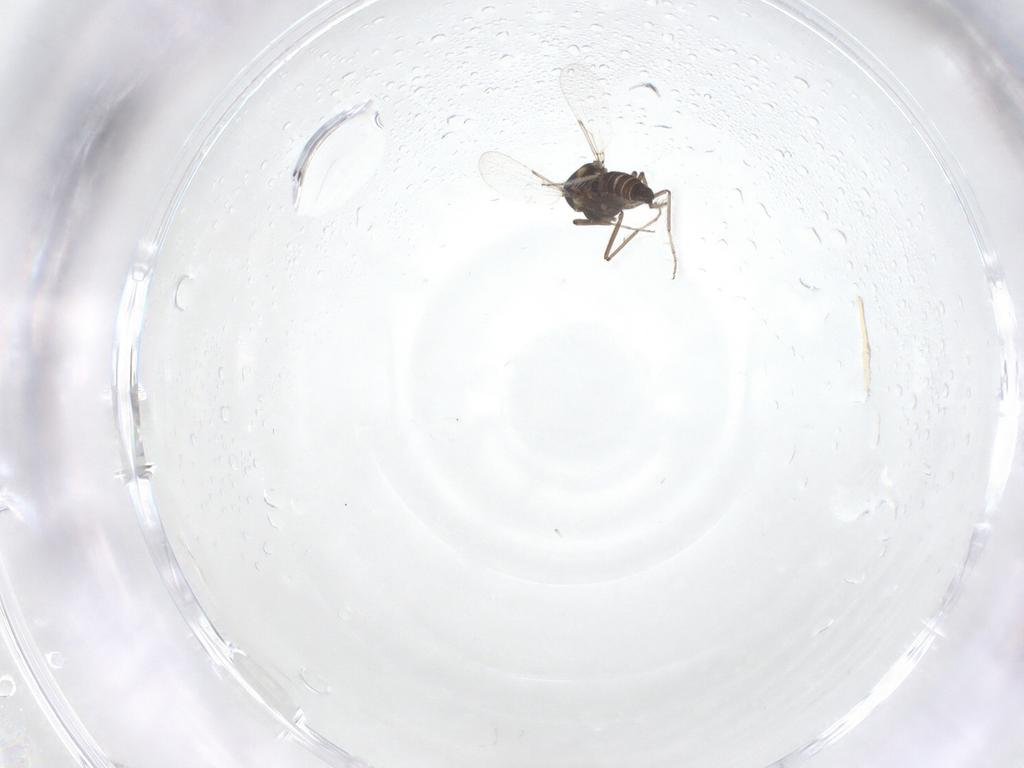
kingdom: Animalia
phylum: Arthropoda
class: Insecta
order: Diptera
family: Ceratopogonidae
